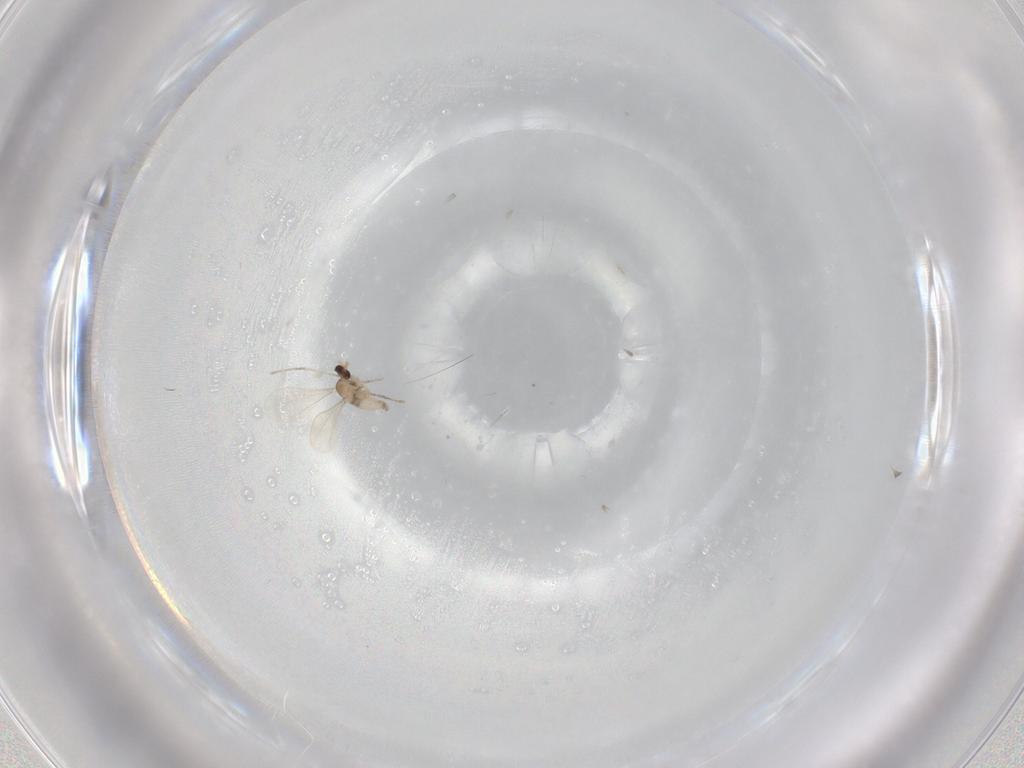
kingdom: Animalia
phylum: Arthropoda
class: Insecta
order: Diptera
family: Cecidomyiidae
